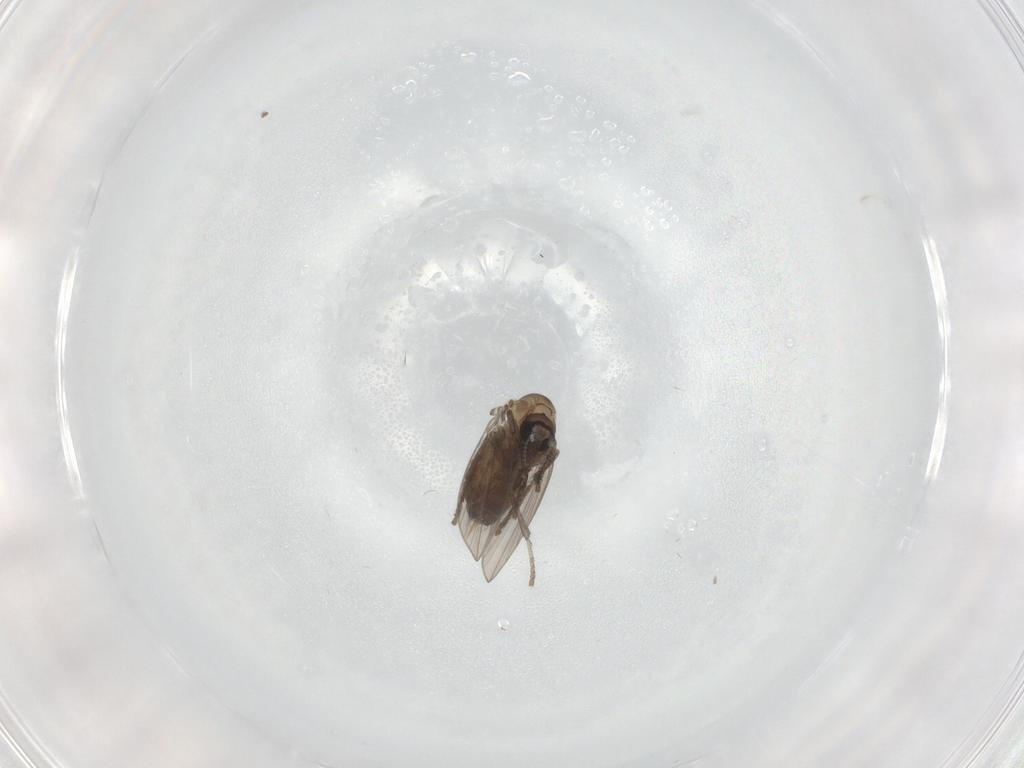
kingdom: Animalia
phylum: Arthropoda
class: Insecta
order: Diptera
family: Psychodidae
